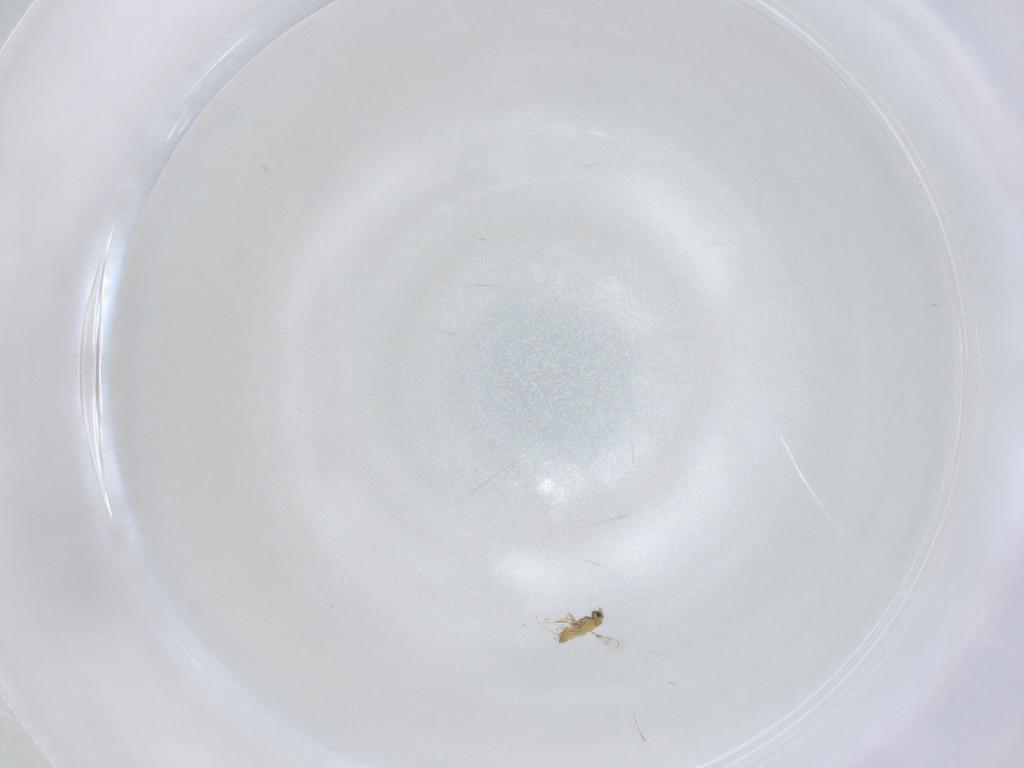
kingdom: Animalia
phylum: Arthropoda
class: Insecta
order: Hymenoptera
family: Trichogrammatidae
